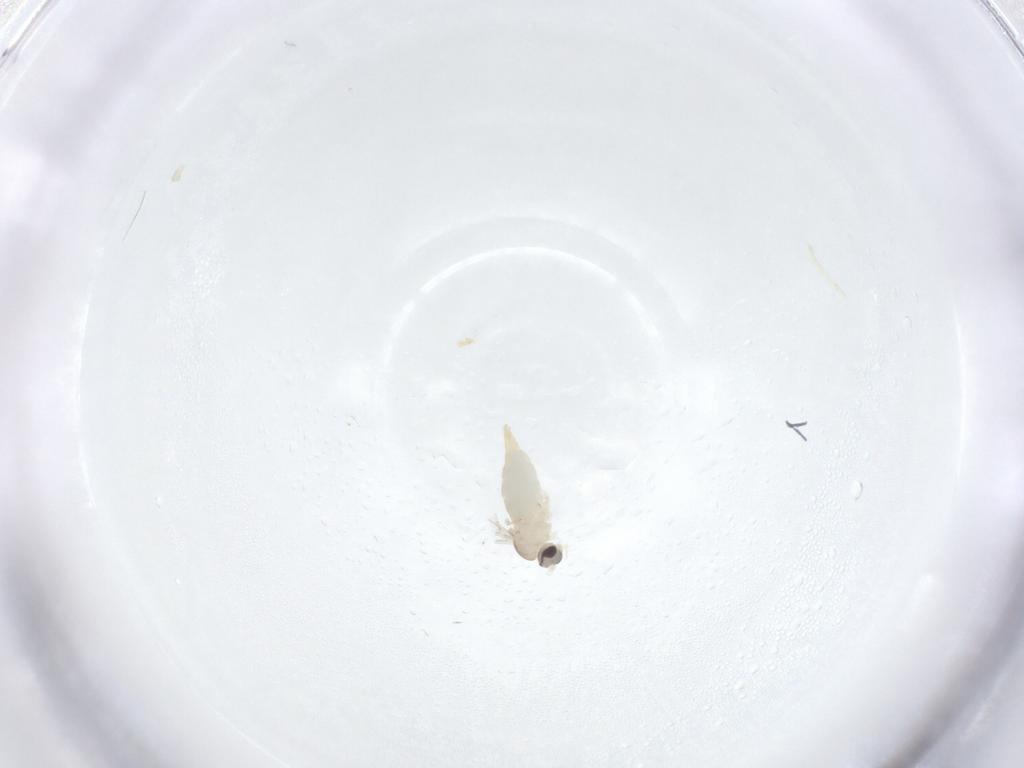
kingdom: Animalia
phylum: Arthropoda
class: Insecta
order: Diptera
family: Cecidomyiidae
